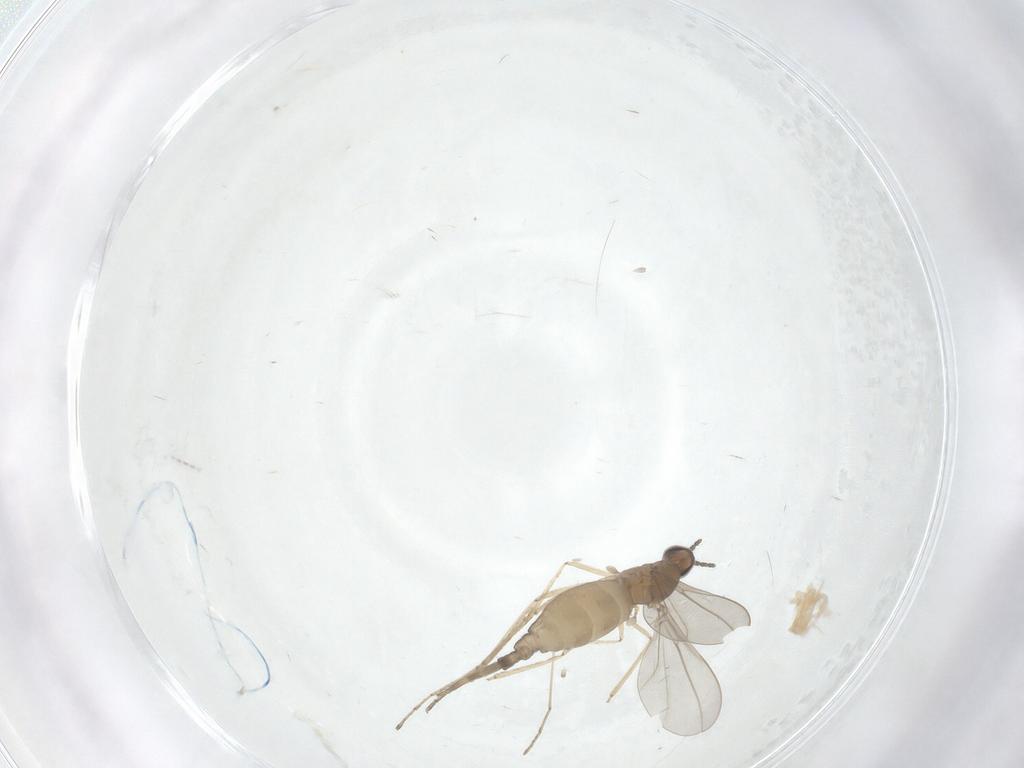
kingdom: Animalia
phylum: Arthropoda
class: Insecta
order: Diptera
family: Cecidomyiidae
